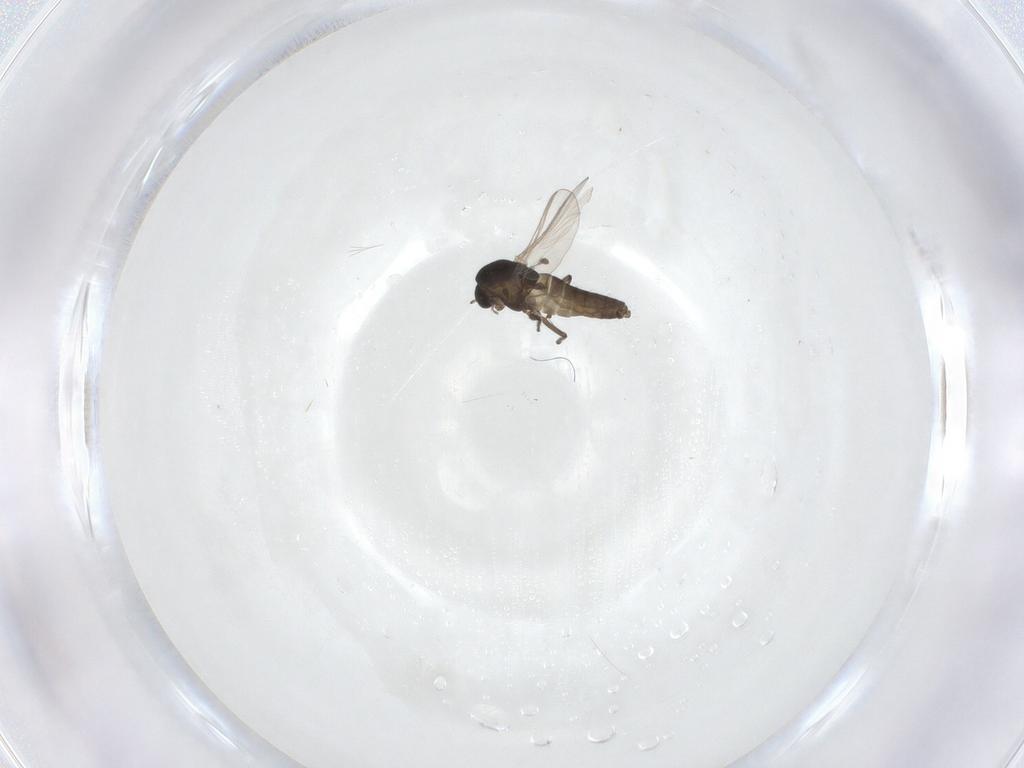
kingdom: Animalia
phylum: Arthropoda
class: Insecta
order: Diptera
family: Chironomidae
